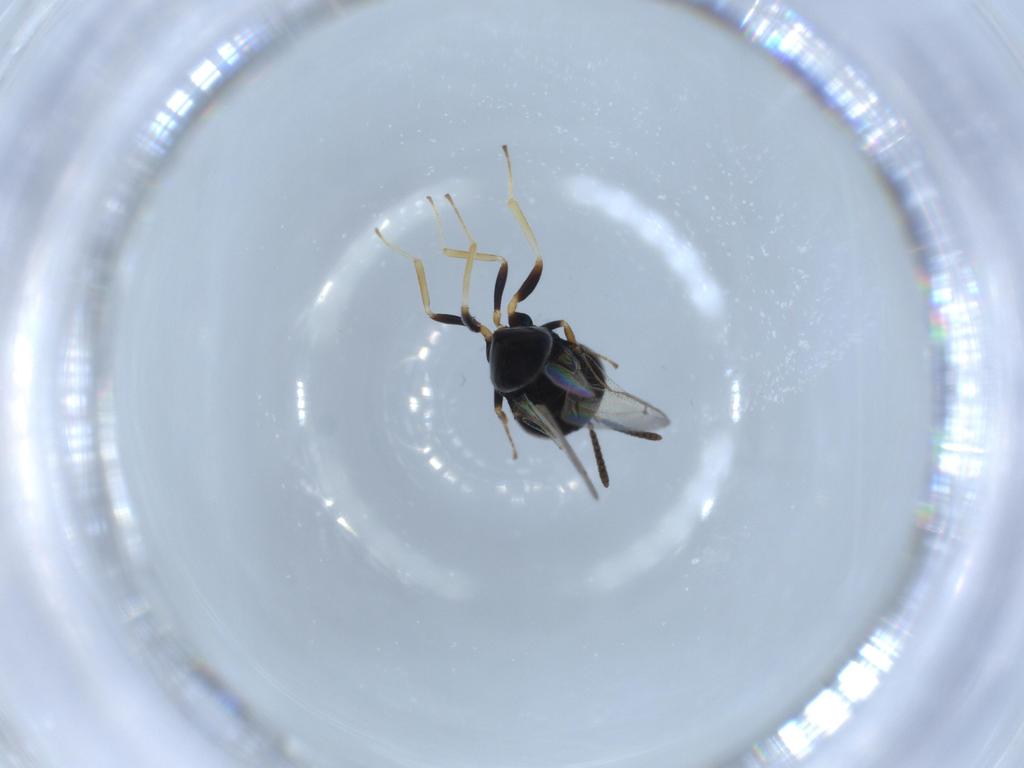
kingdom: Animalia
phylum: Arthropoda
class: Insecta
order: Hymenoptera
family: Pteromalidae
